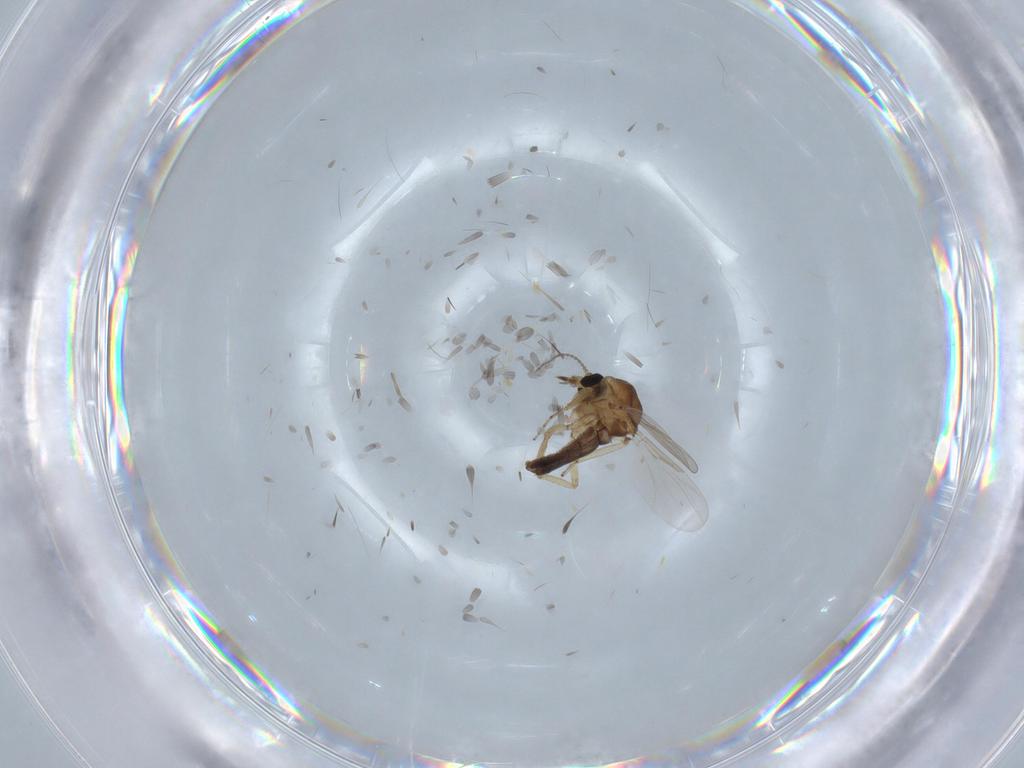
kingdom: Animalia
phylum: Arthropoda
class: Insecta
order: Diptera
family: Ceratopogonidae
